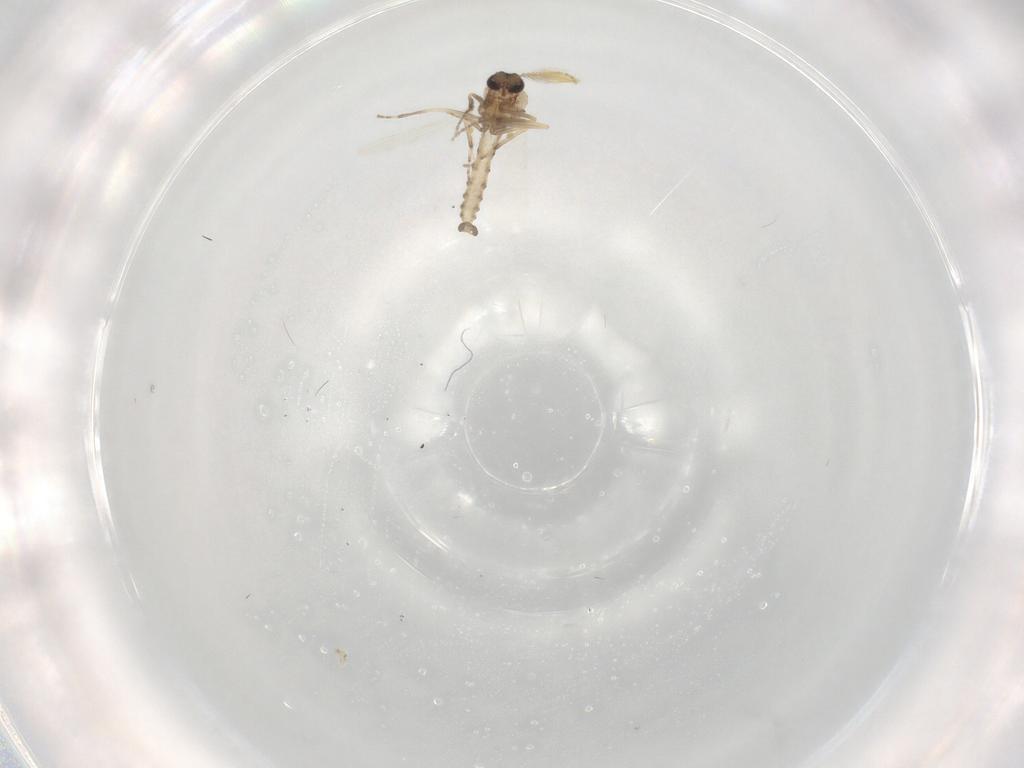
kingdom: Animalia
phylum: Arthropoda
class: Insecta
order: Diptera
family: Ceratopogonidae
